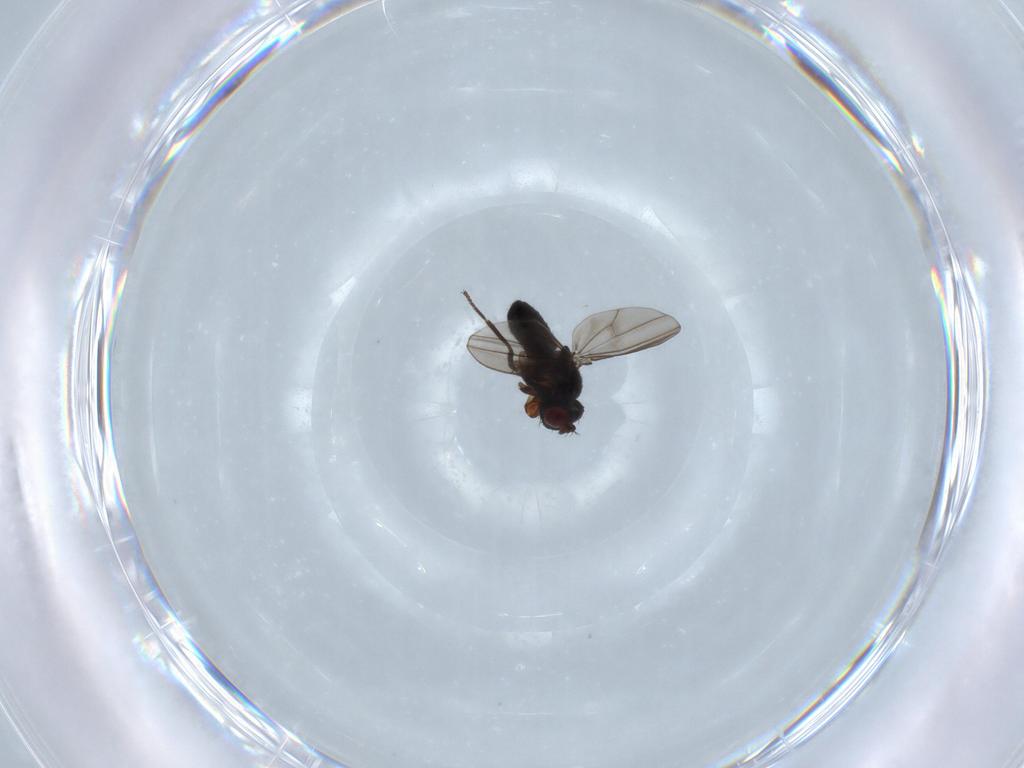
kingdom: Animalia
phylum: Arthropoda
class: Insecta
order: Diptera
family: Ephydridae
